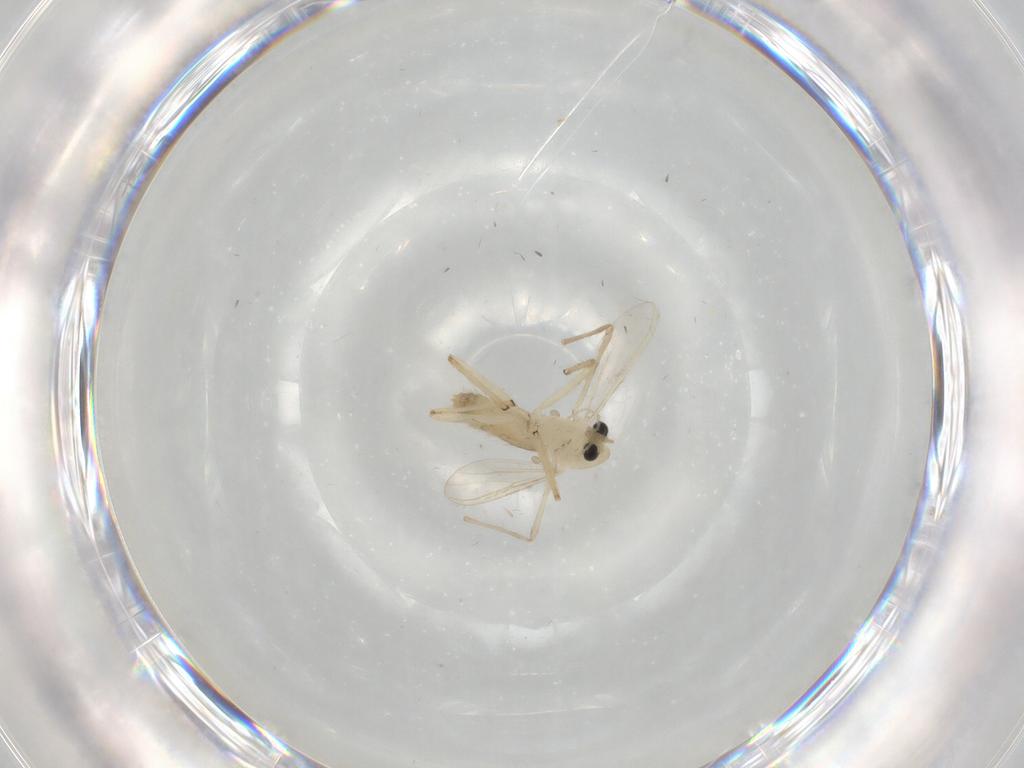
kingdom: Animalia
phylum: Arthropoda
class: Insecta
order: Diptera
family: Chironomidae
